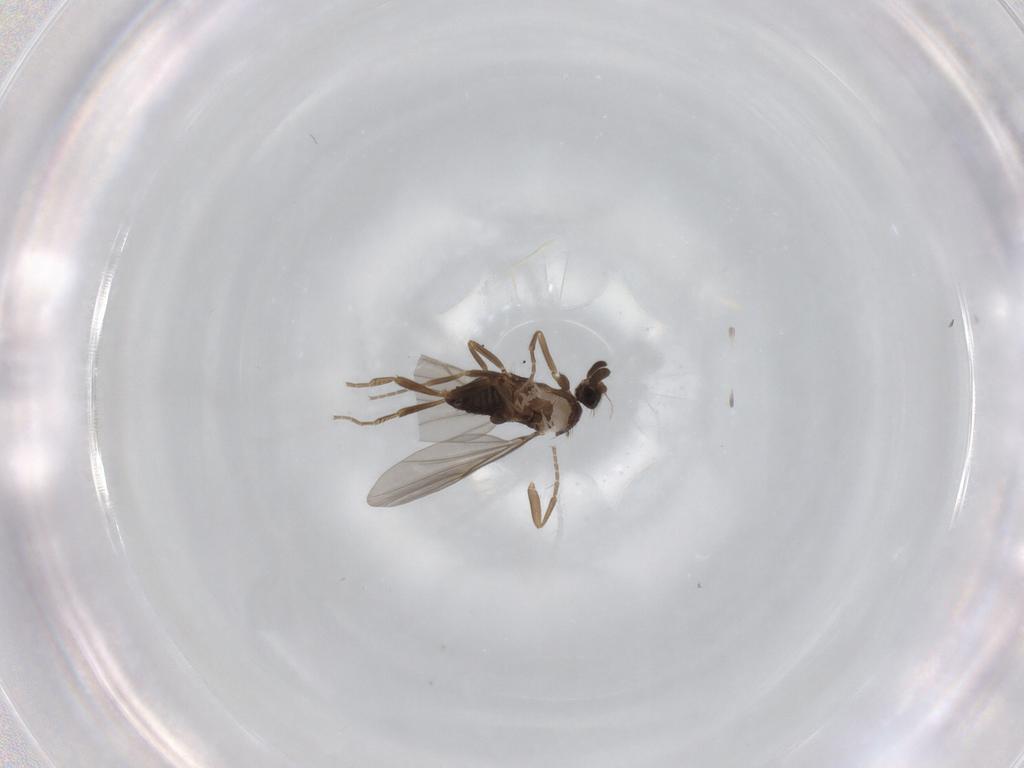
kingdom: Animalia
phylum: Arthropoda
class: Insecta
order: Diptera
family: Phoridae
